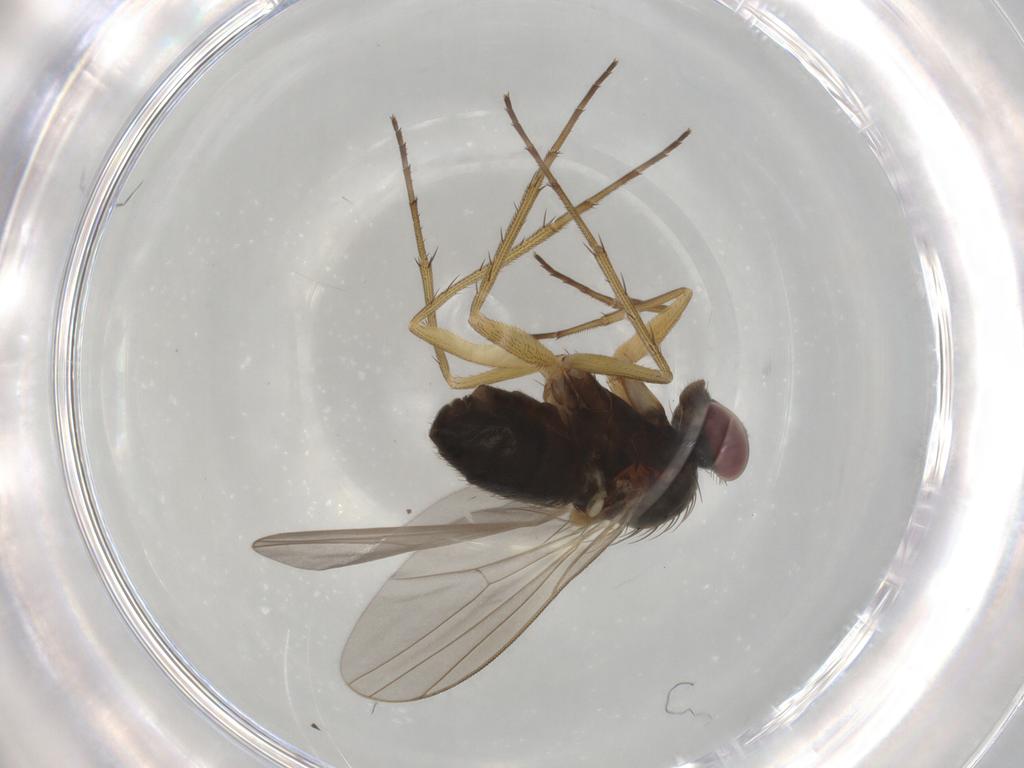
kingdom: Animalia
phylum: Arthropoda
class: Insecta
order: Diptera
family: Dolichopodidae
